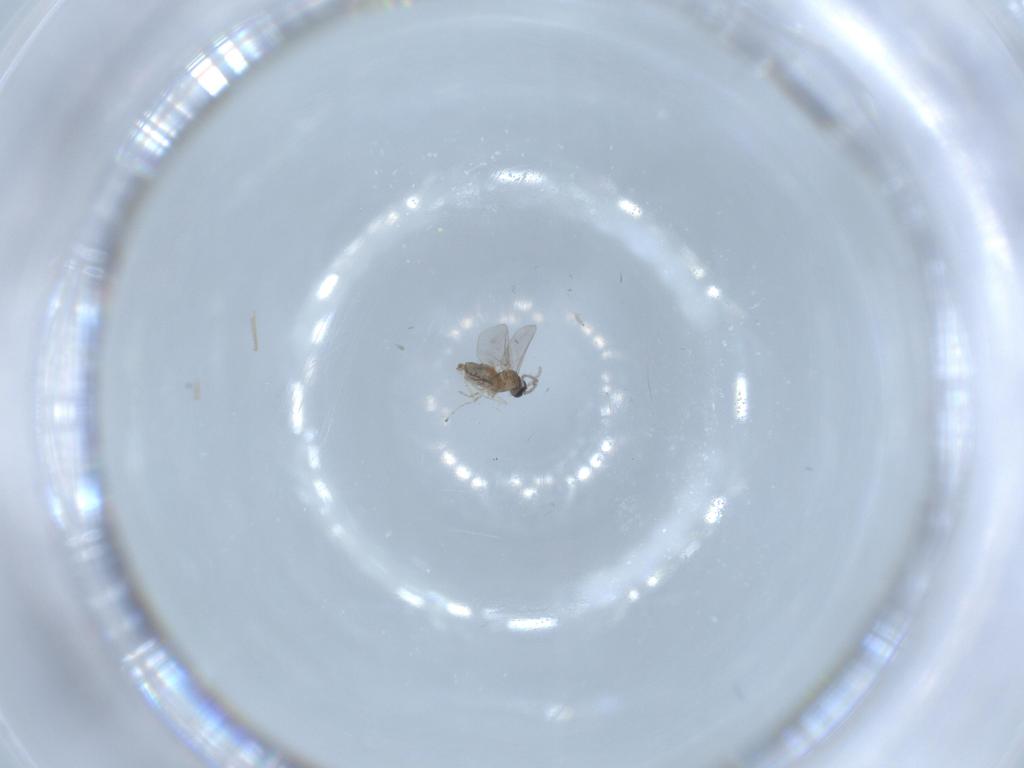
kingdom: Animalia
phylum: Arthropoda
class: Insecta
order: Diptera
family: Cecidomyiidae
